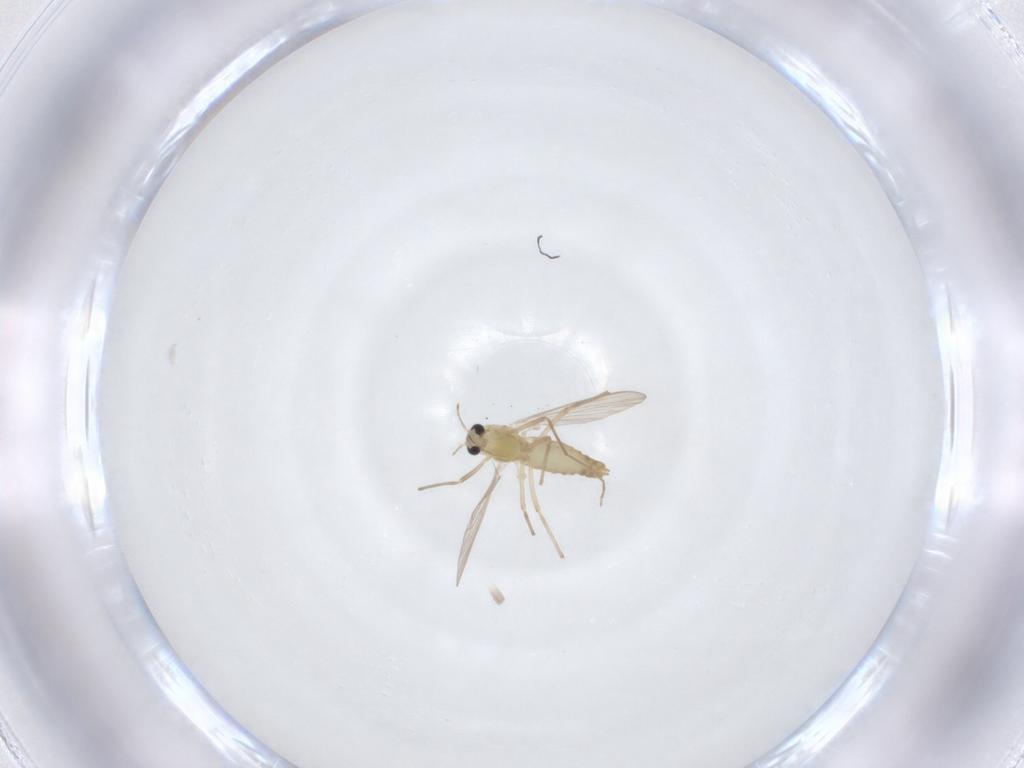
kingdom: Animalia
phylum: Arthropoda
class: Insecta
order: Diptera
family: Chironomidae
